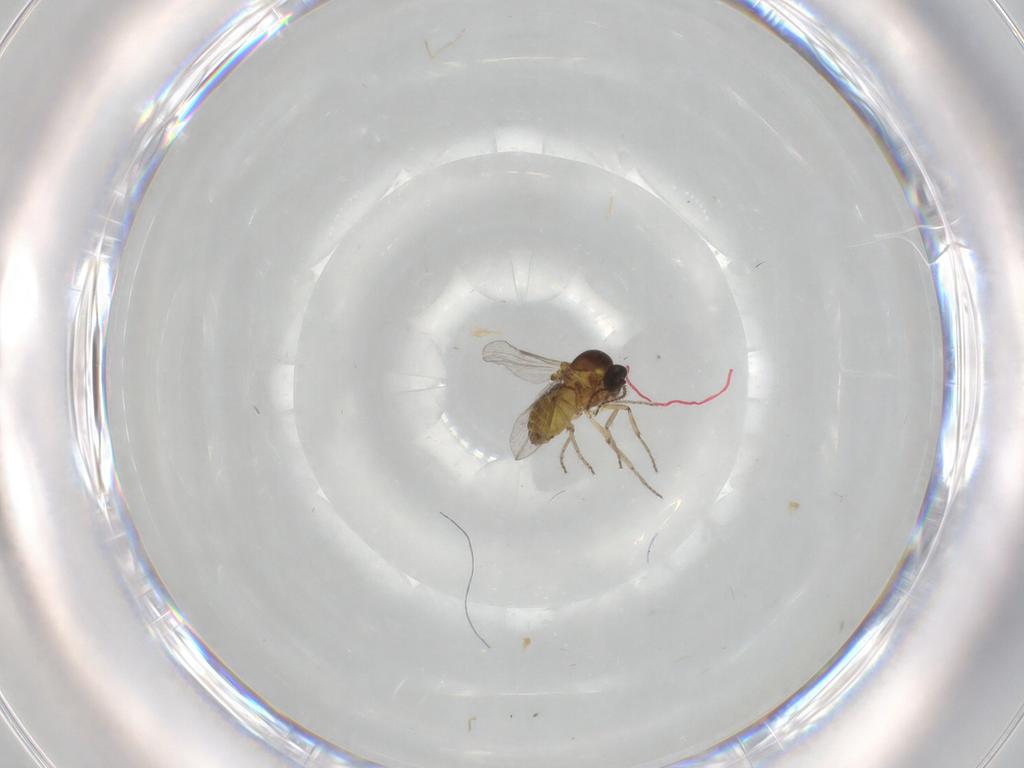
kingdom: Animalia
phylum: Arthropoda
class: Insecta
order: Diptera
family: Ceratopogonidae
